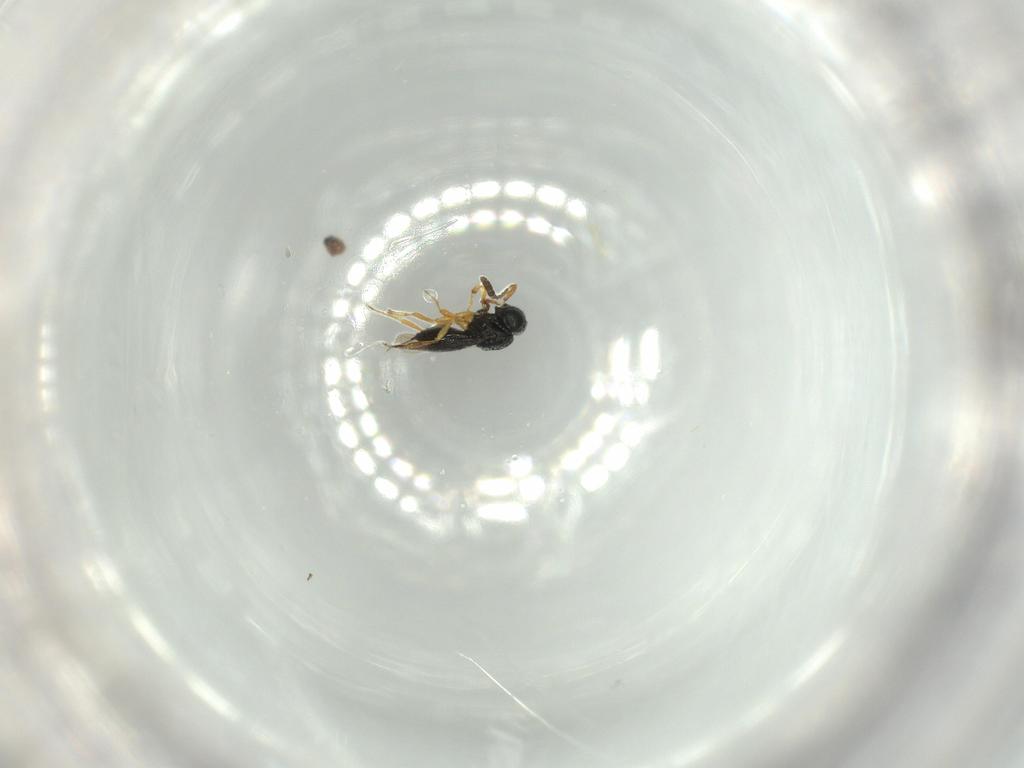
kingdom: Animalia
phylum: Arthropoda
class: Insecta
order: Hymenoptera
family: Scelionidae
